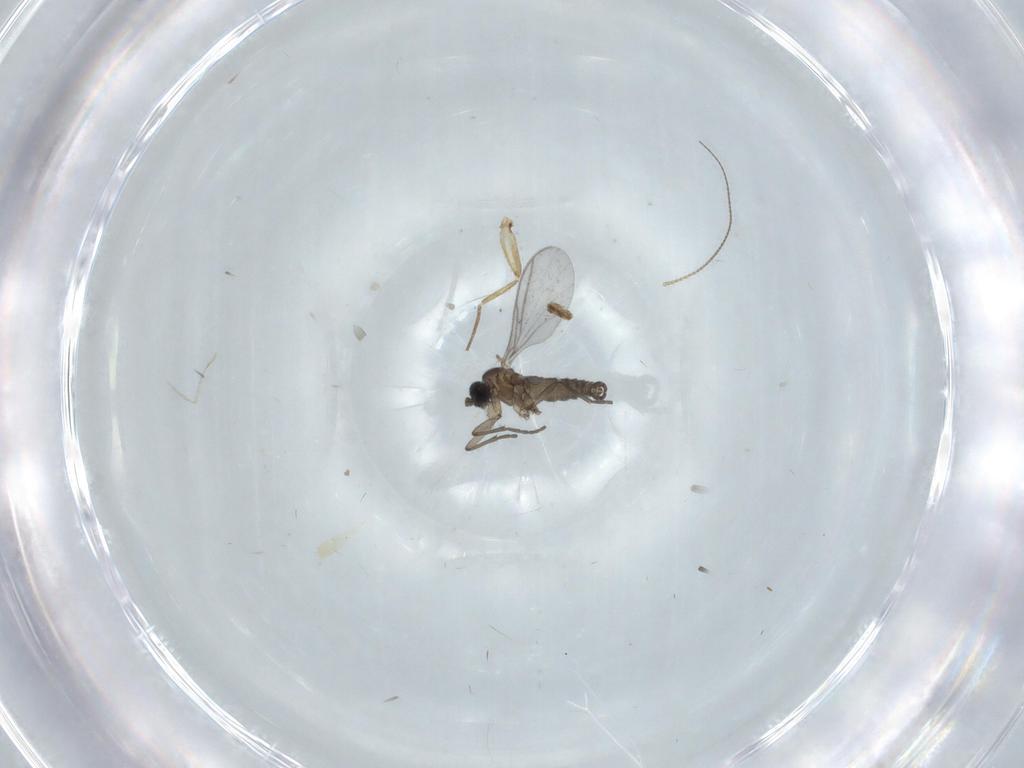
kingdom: Animalia
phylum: Arthropoda
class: Insecta
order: Diptera
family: Cecidomyiidae
